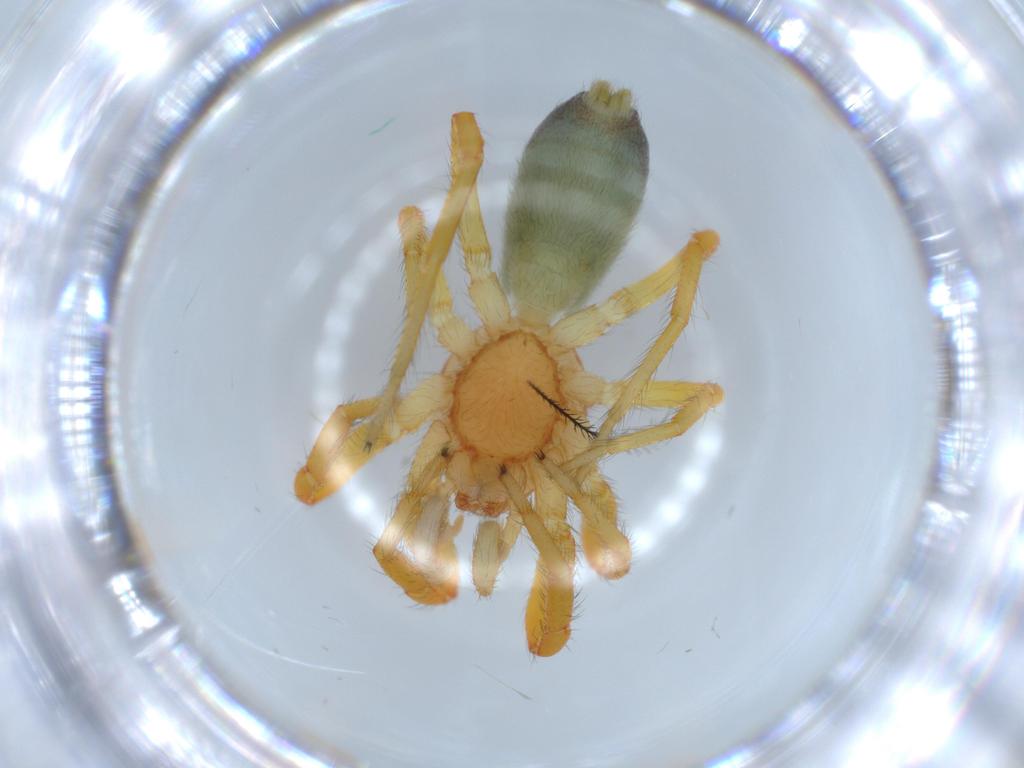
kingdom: Animalia
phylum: Arthropoda
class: Arachnida
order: Araneae
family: Caponiidae
